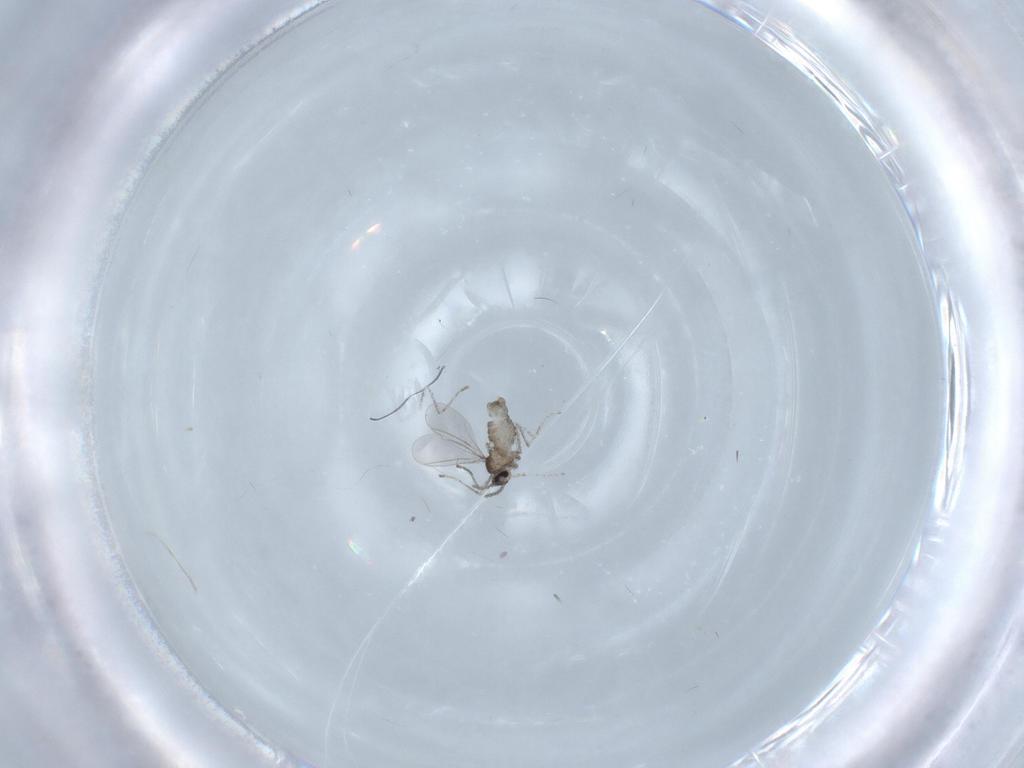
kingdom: Animalia
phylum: Arthropoda
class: Insecta
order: Diptera
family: Cecidomyiidae
